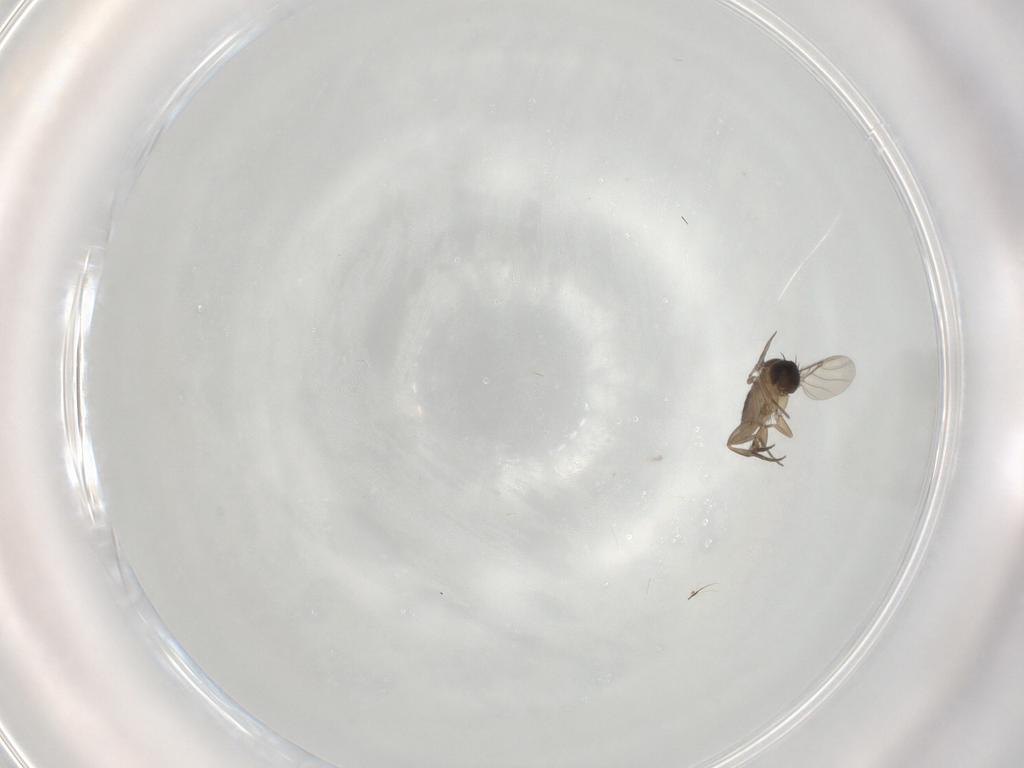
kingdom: Animalia
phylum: Arthropoda
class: Insecta
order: Diptera
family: Phoridae
